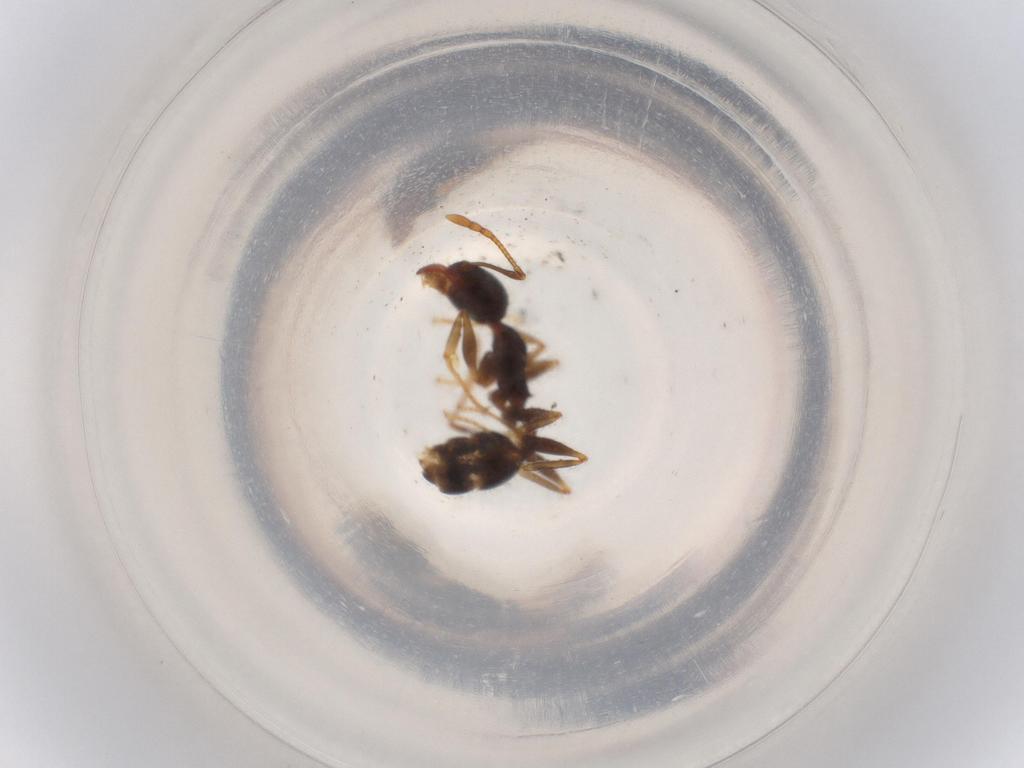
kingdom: Animalia
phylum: Arthropoda
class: Insecta
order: Hymenoptera
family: Formicidae
